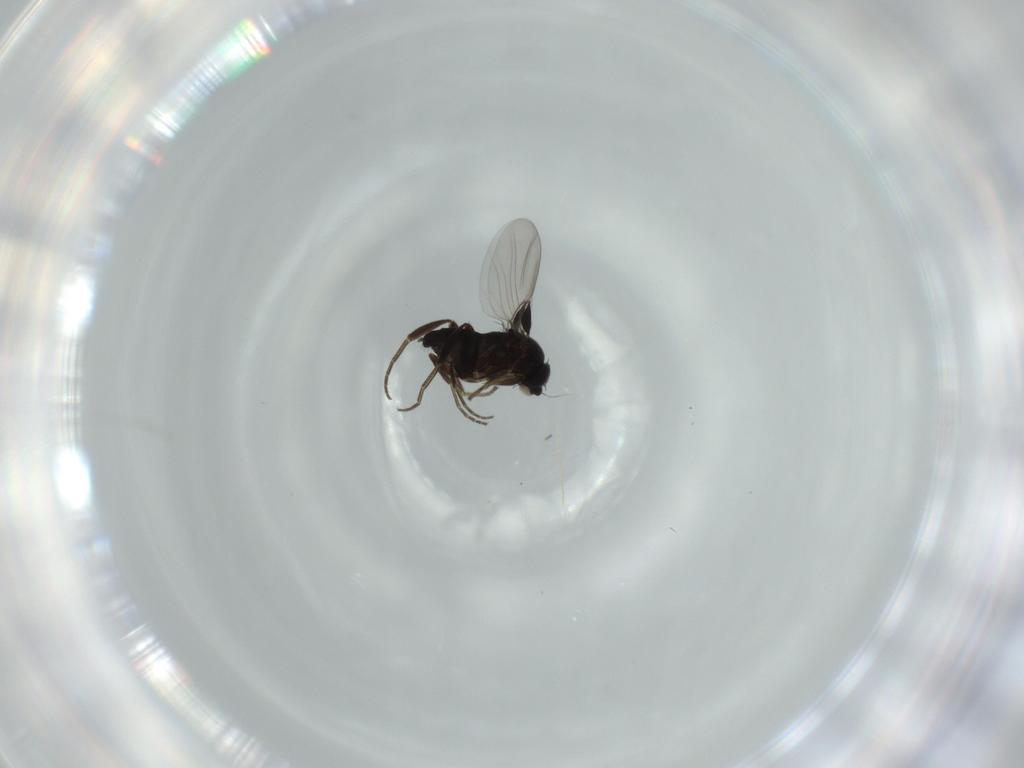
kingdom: Animalia
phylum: Arthropoda
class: Insecta
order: Diptera
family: Phoridae
